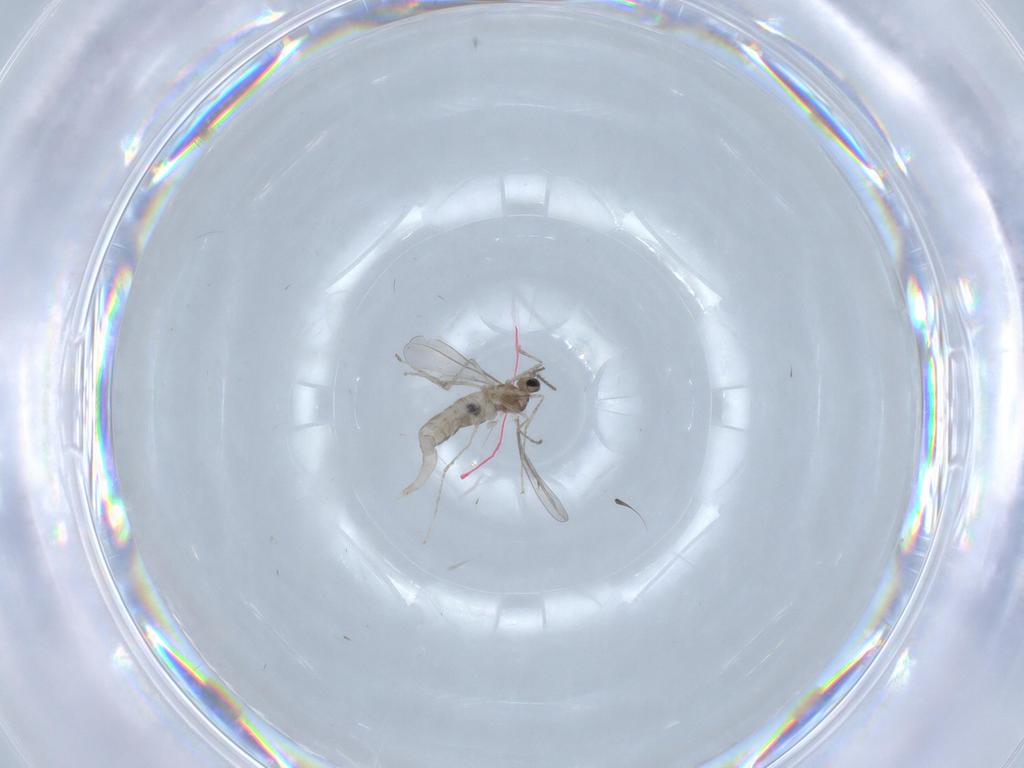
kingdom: Animalia
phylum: Arthropoda
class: Insecta
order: Diptera
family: Cecidomyiidae
